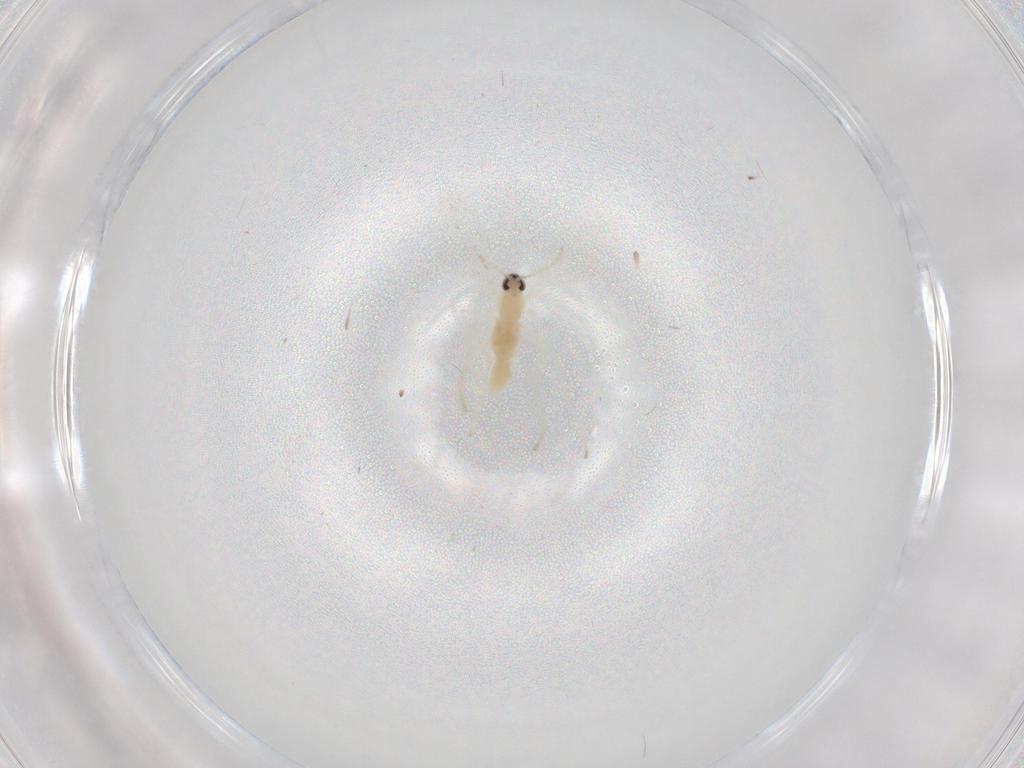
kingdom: Animalia
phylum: Arthropoda
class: Insecta
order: Diptera
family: Cecidomyiidae
